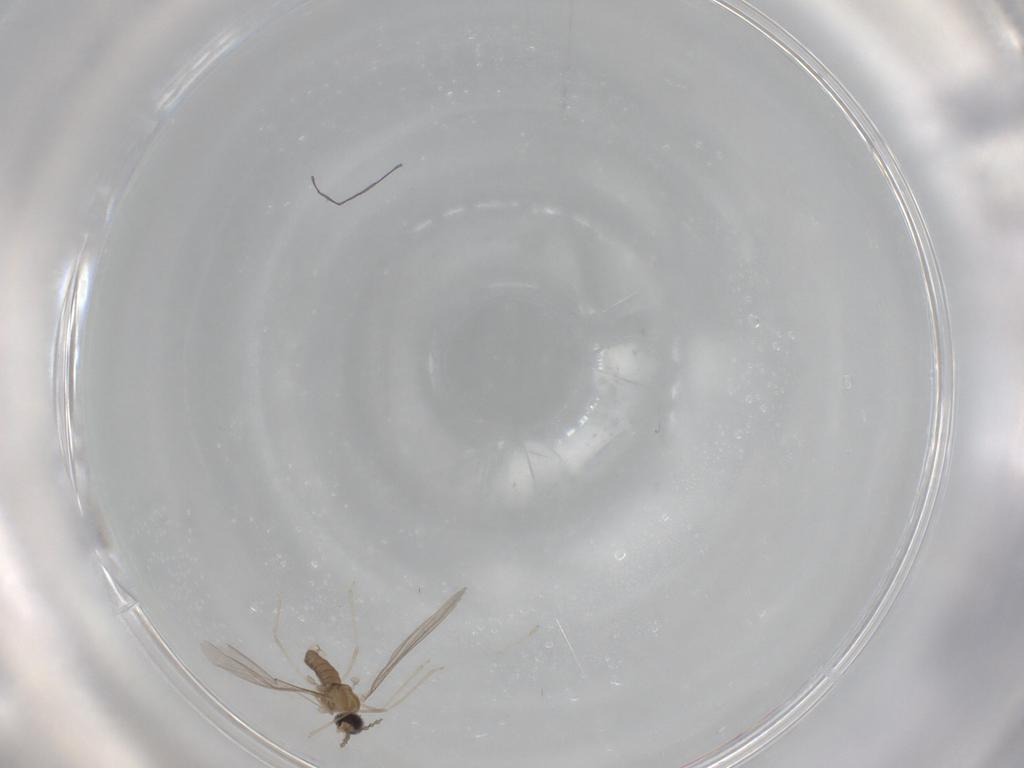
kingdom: Animalia
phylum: Arthropoda
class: Insecta
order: Diptera
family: Cecidomyiidae
